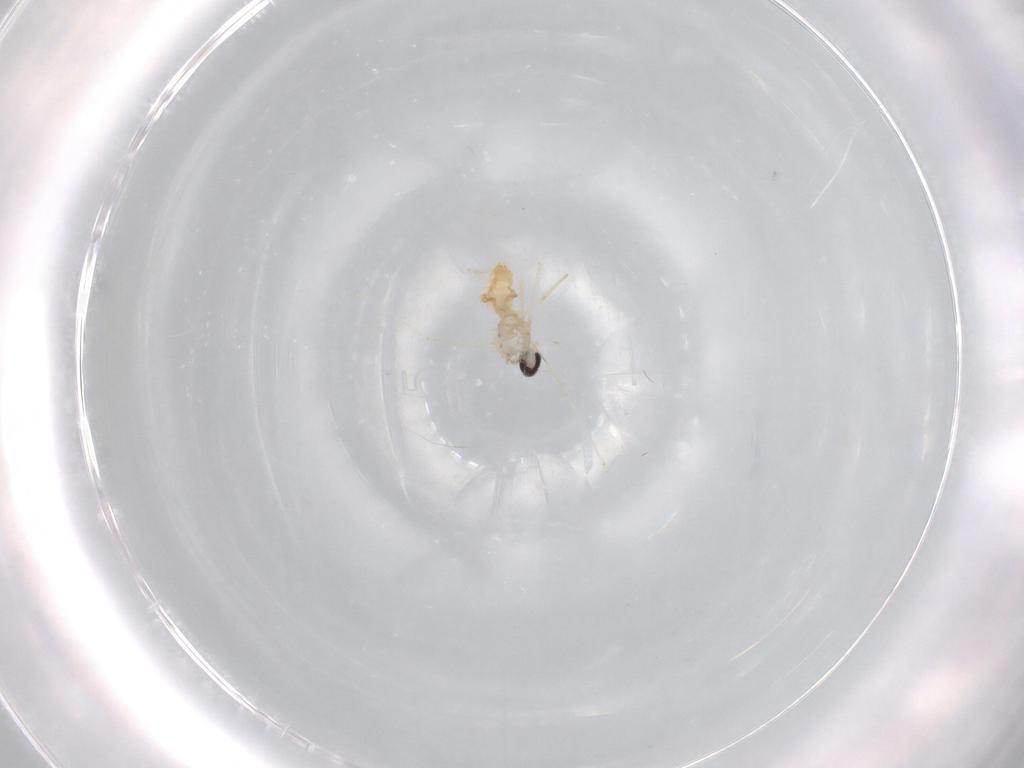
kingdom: Animalia
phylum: Arthropoda
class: Insecta
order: Diptera
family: Cecidomyiidae
